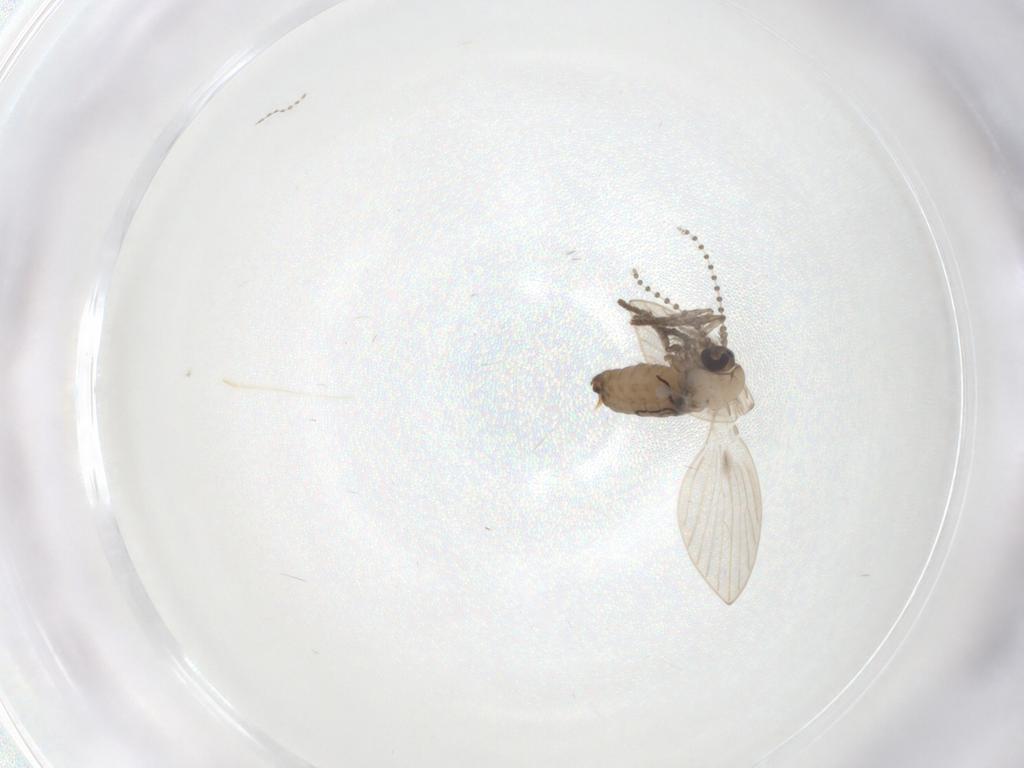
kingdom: Animalia
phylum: Arthropoda
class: Insecta
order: Diptera
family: Psychodidae
